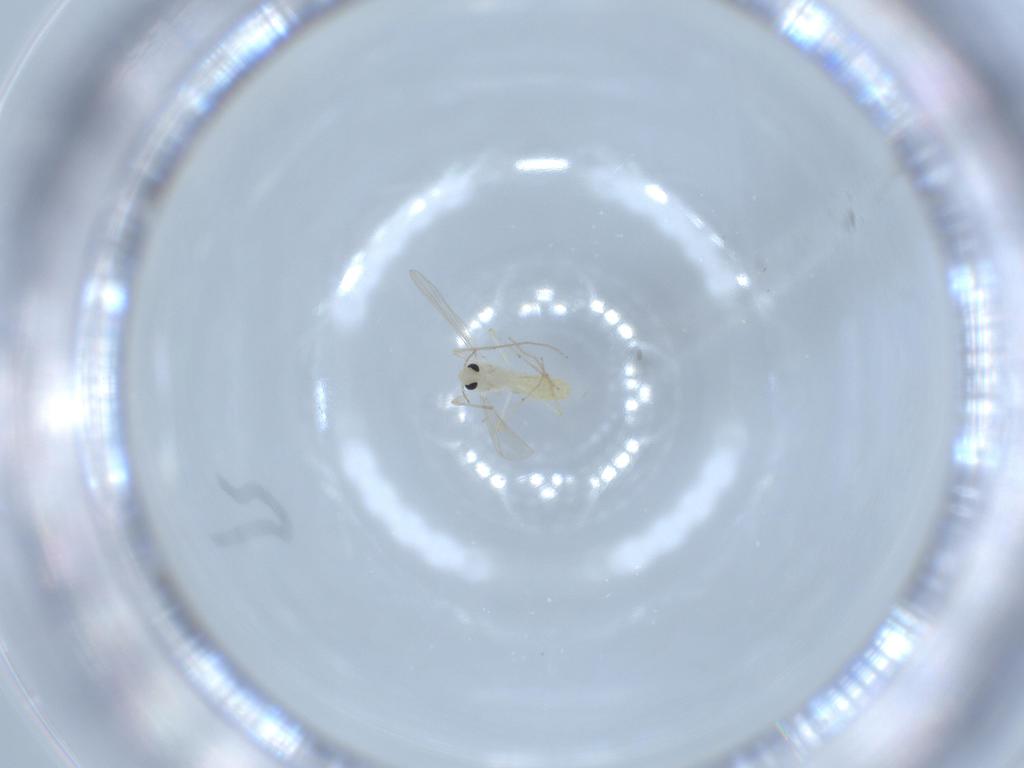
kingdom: Animalia
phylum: Arthropoda
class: Insecta
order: Diptera
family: Chironomidae
